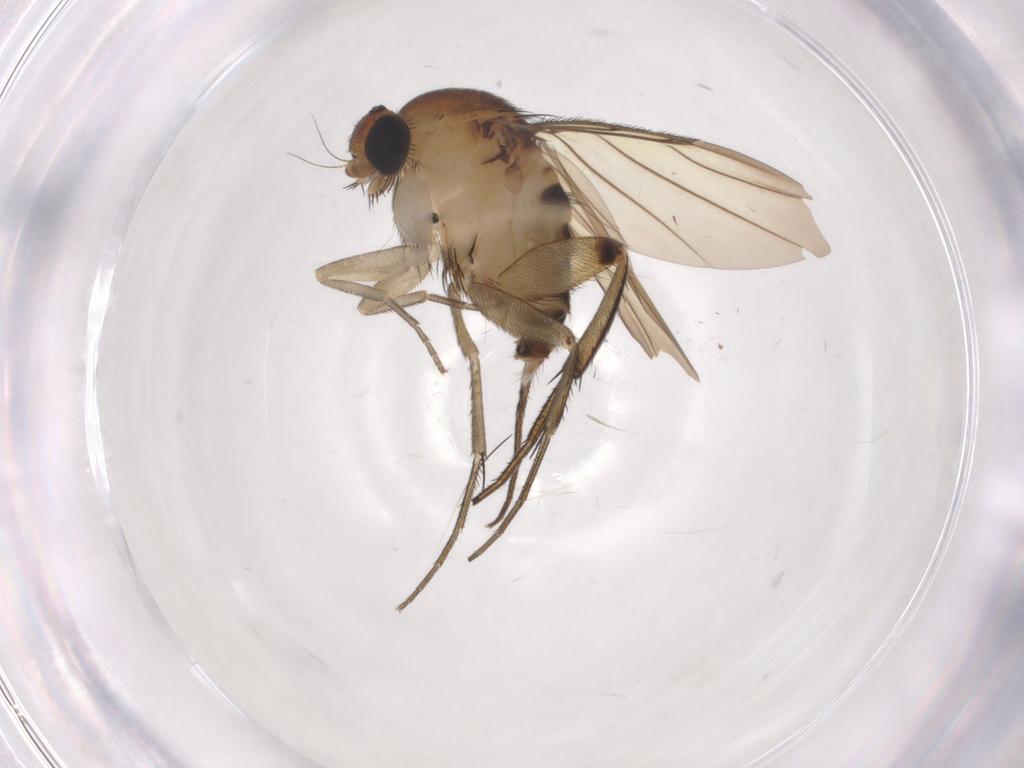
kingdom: Animalia
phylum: Arthropoda
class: Insecta
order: Diptera
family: Phoridae
